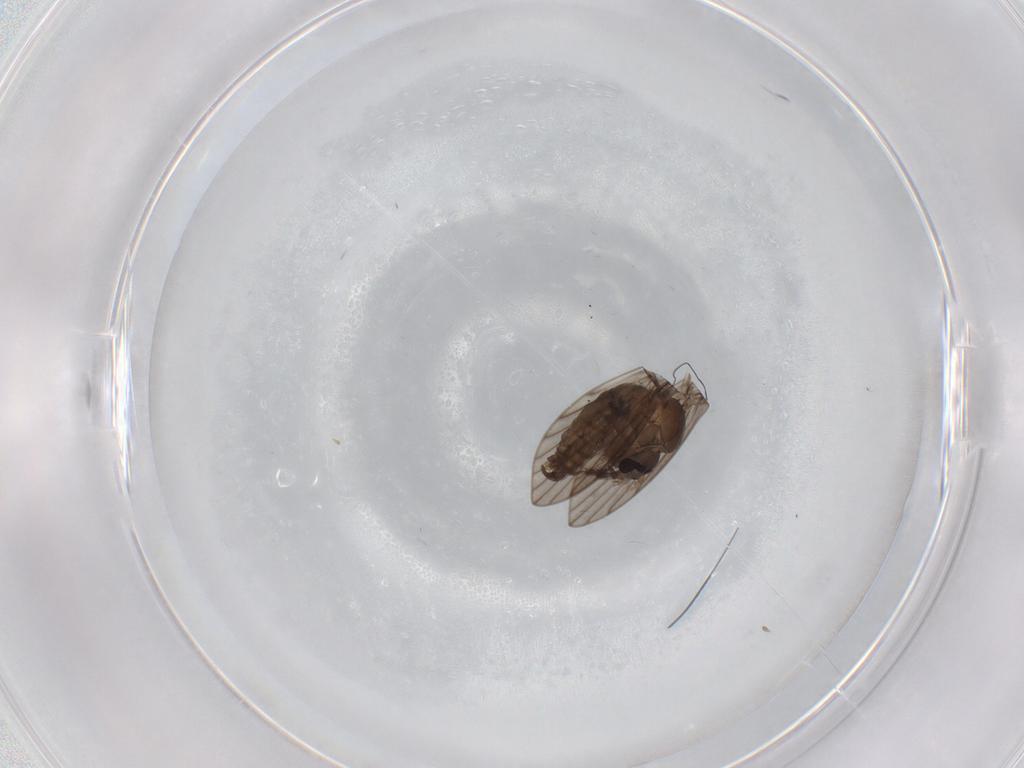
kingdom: Animalia
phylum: Arthropoda
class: Insecta
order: Diptera
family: Psychodidae
